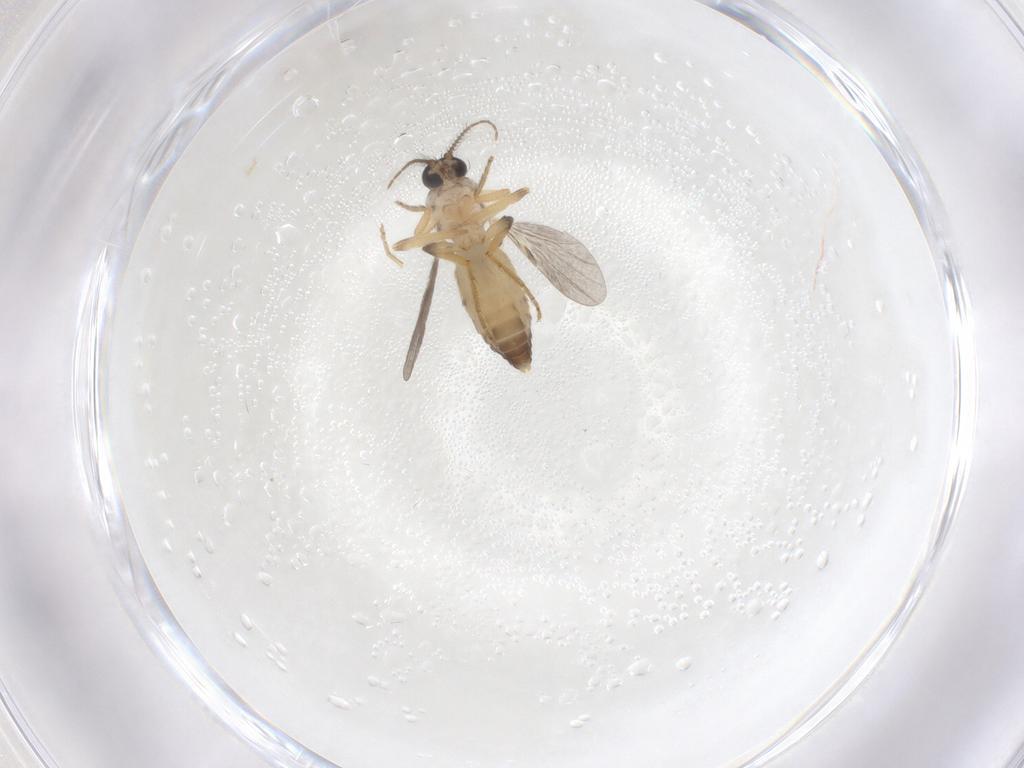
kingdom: Animalia
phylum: Arthropoda
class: Insecta
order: Diptera
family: Ceratopogonidae
